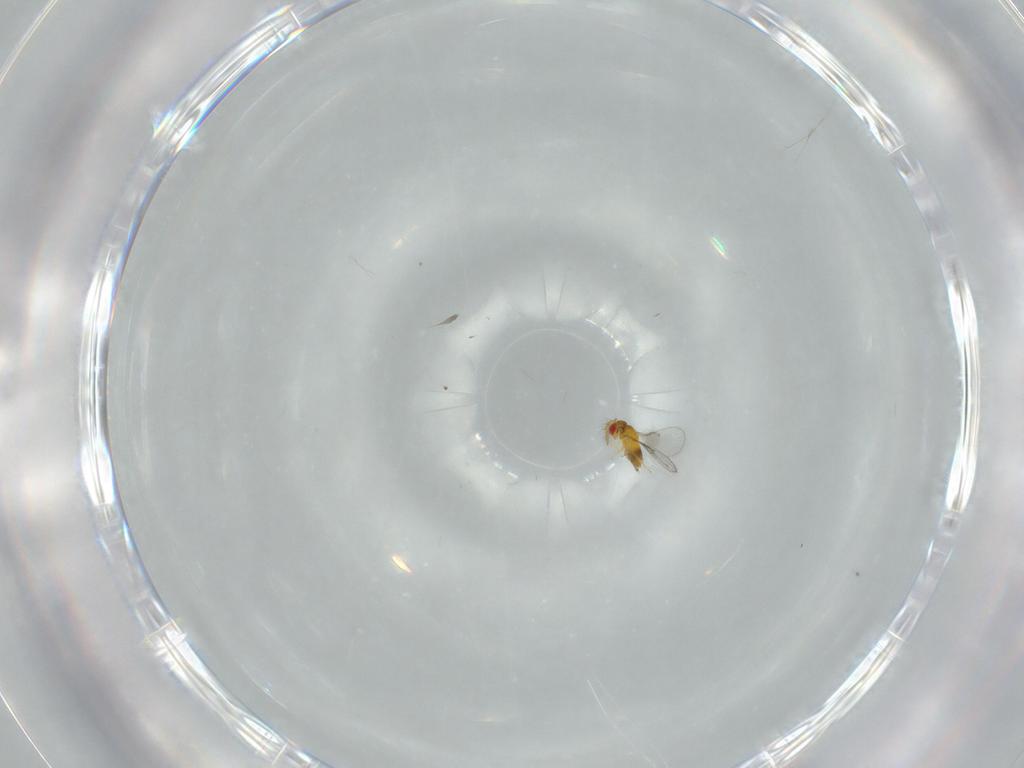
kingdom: Animalia
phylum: Arthropoda
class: Insecta
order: Hymenoptera
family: Trichogrammatidae
